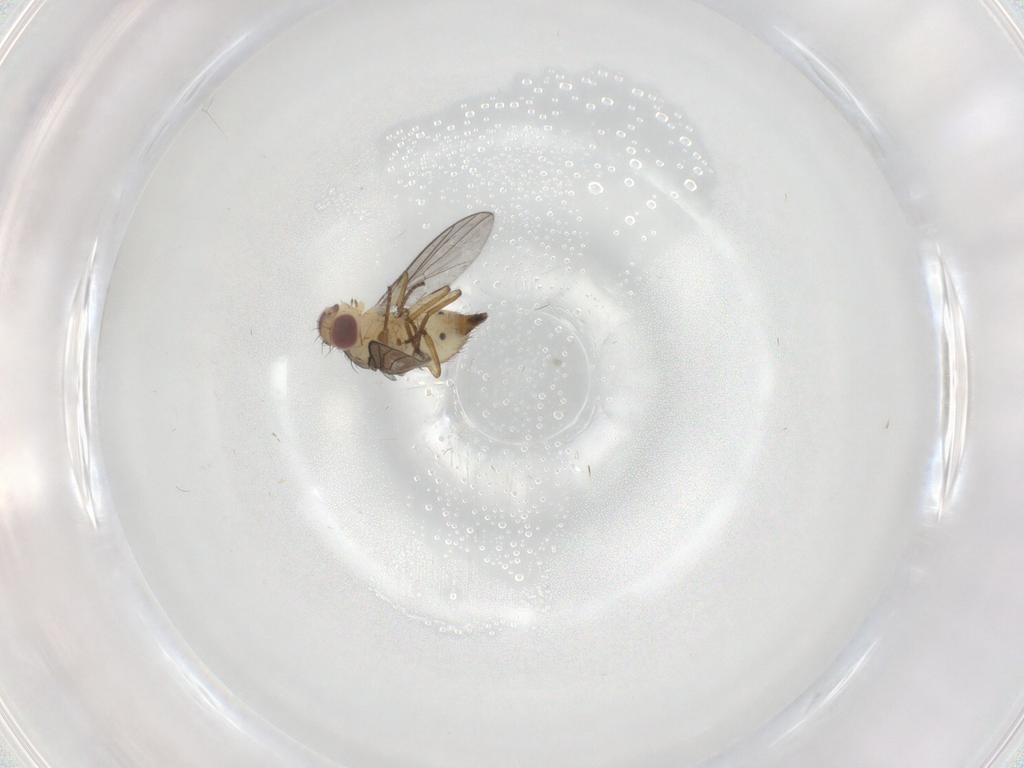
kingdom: Animalia
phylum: Arthropoda
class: Insecta
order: Diptera
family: Agromyzidae
